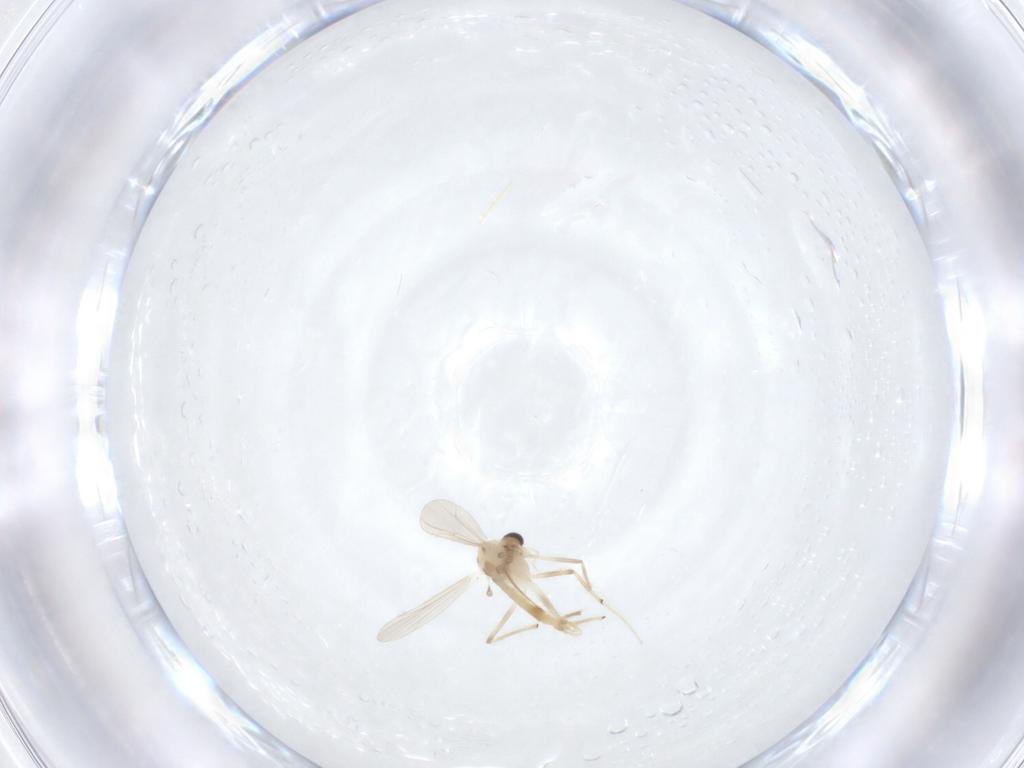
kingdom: Animalia
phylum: Arthropoda
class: Insecta
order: Diptera
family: Chironomidae
